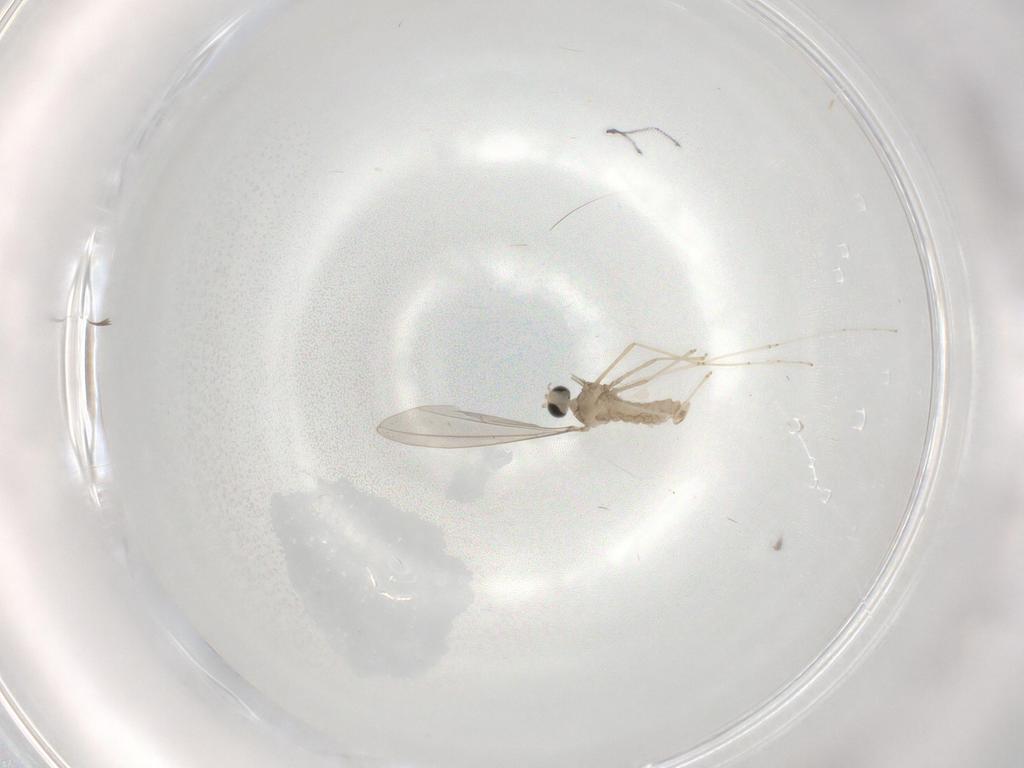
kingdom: Animalia
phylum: Arthropoda
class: Insecta
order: Diptera
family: Cecidomyiidae
